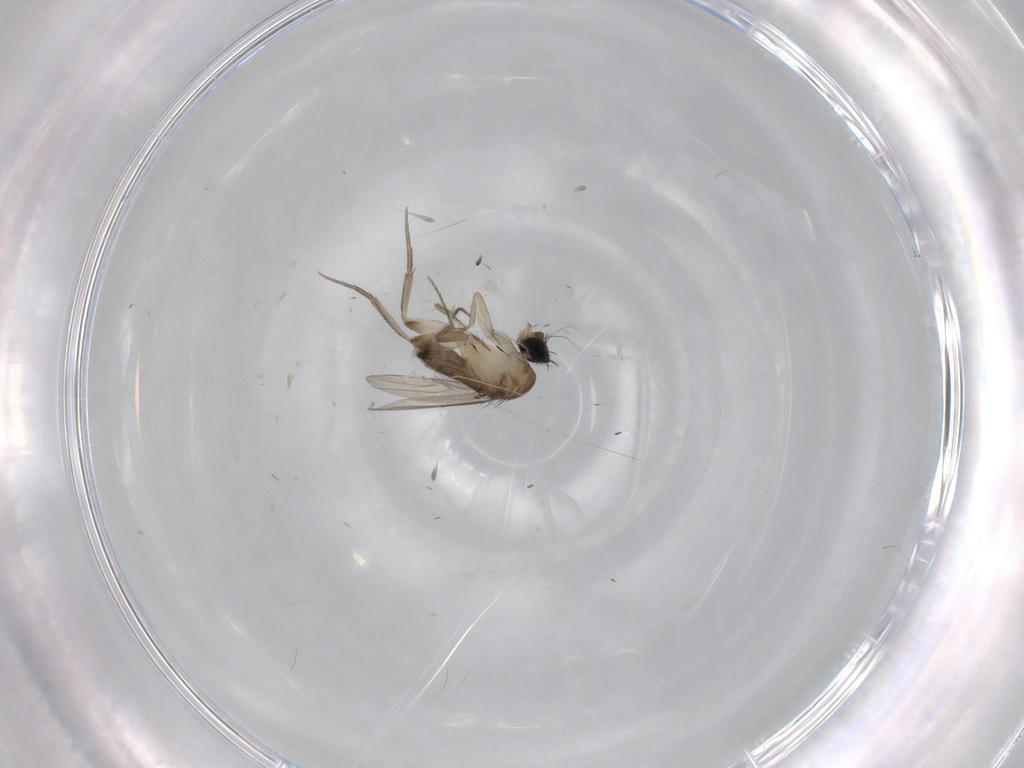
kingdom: Animalia
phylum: Arthropoda
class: Insecta
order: Diptera
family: Phoridae
